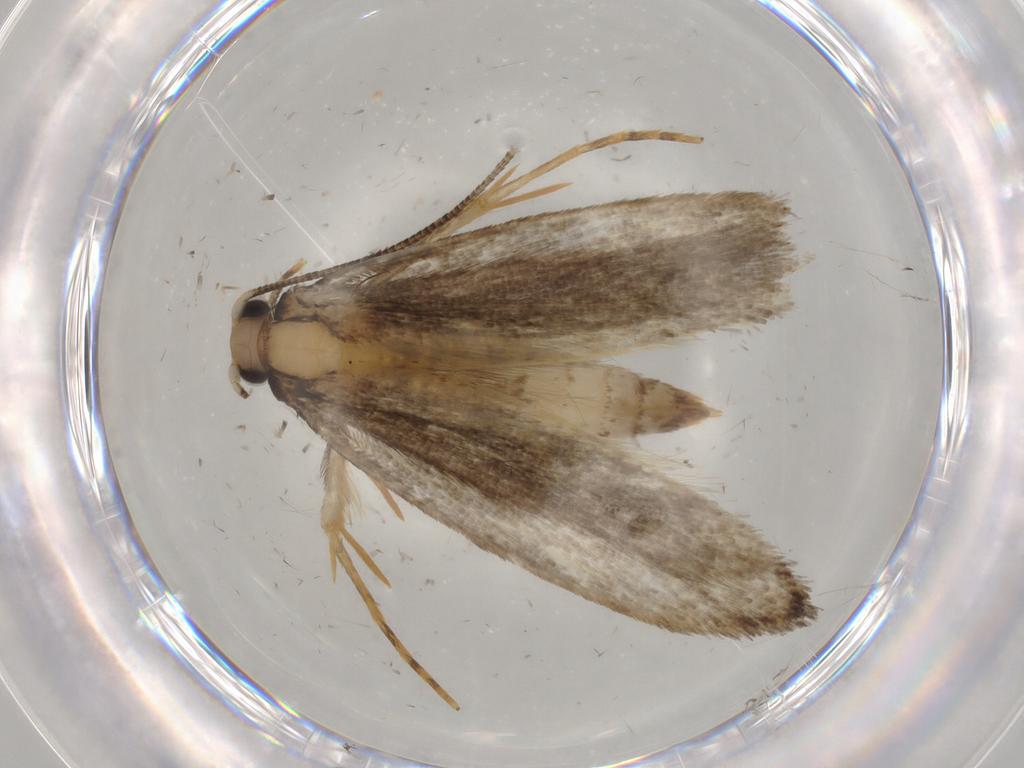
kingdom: Animalia
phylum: Arthropoda
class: Insecta
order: Lepidoptera
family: Tineidae
